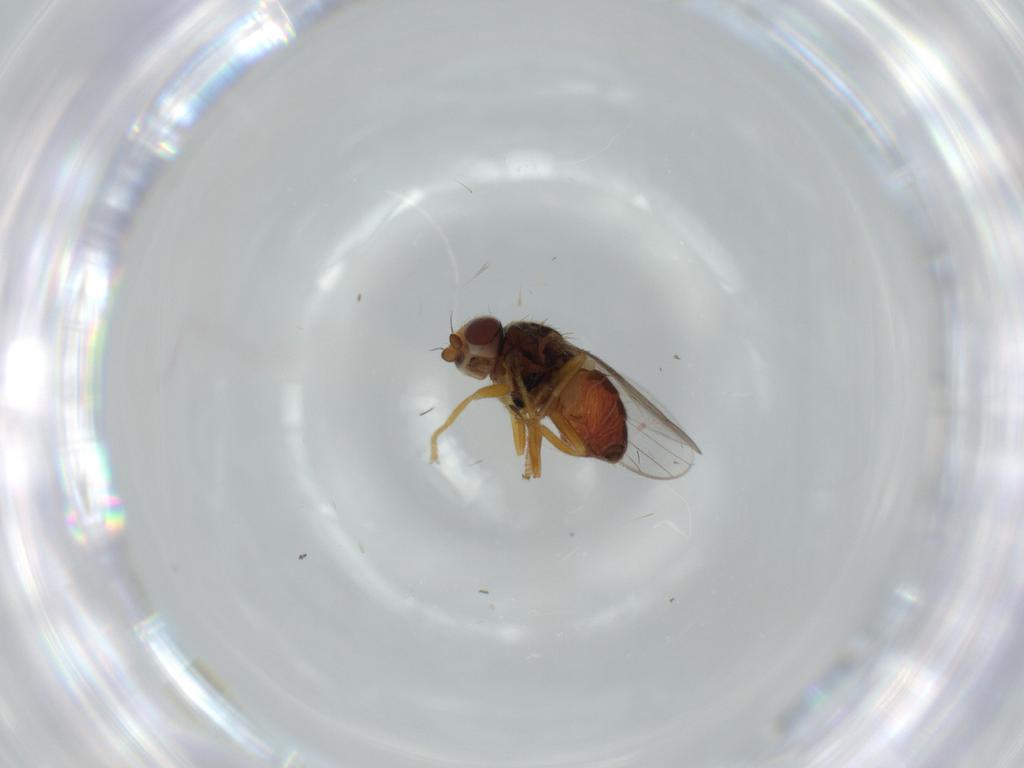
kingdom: Animalia
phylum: Arthropoda
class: Insecta
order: Diptera
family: Chloropidae
